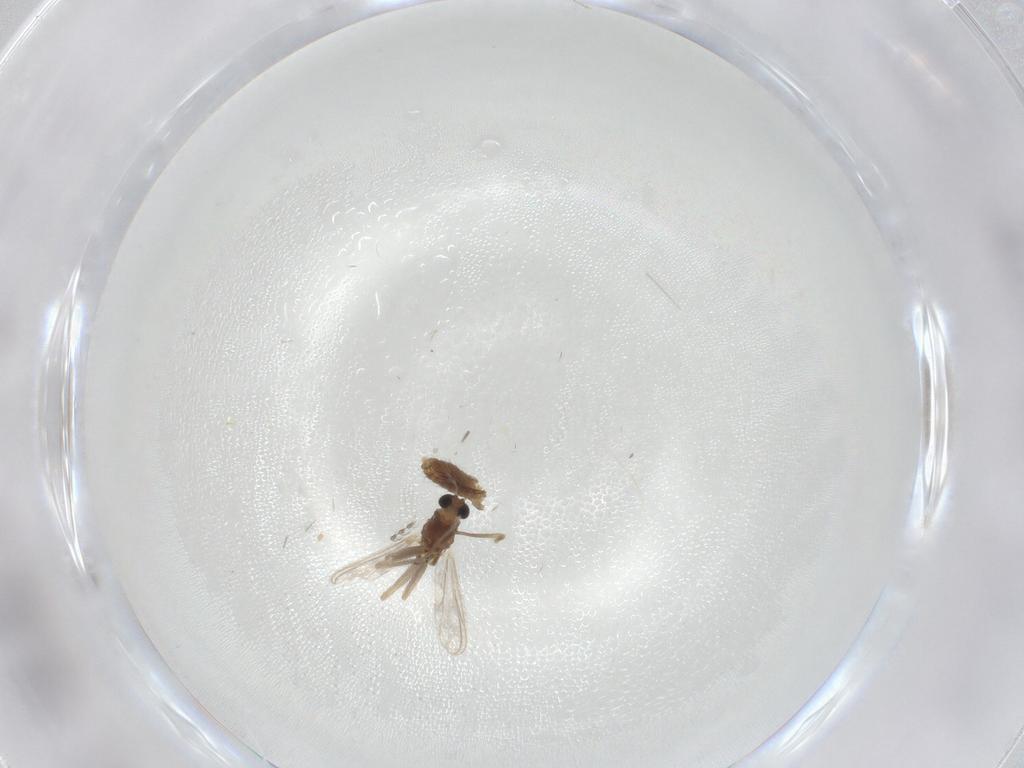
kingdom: Animalia
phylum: Arthropoda
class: Insecta
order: Diptera
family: Chironomidae
